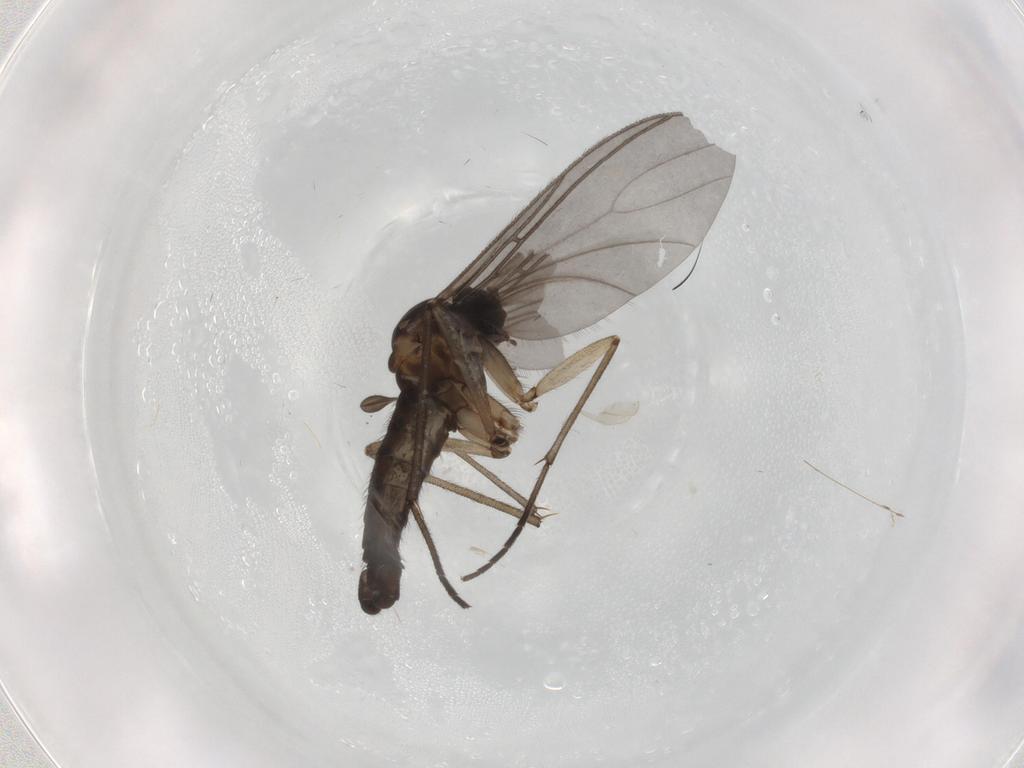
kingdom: Animalia
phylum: Arthropoda
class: Insecta
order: Diptera
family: Sciaridae
